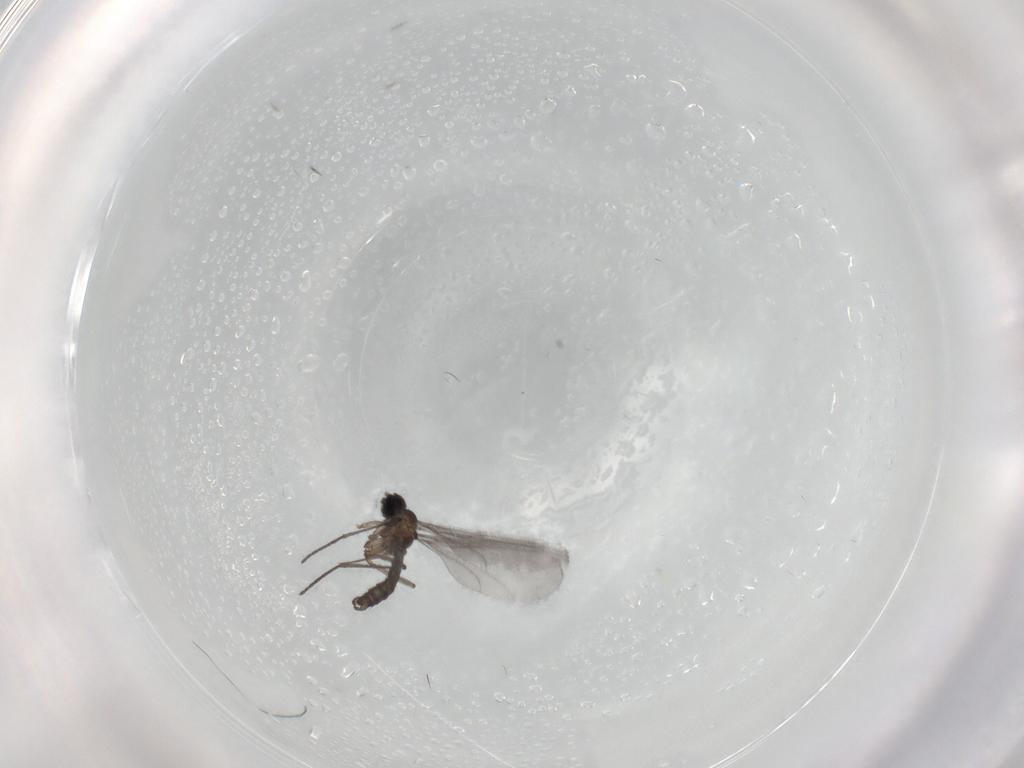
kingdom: Animalia
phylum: Arthropoda
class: Insecta
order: Diptera
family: Cecidomyiidae
